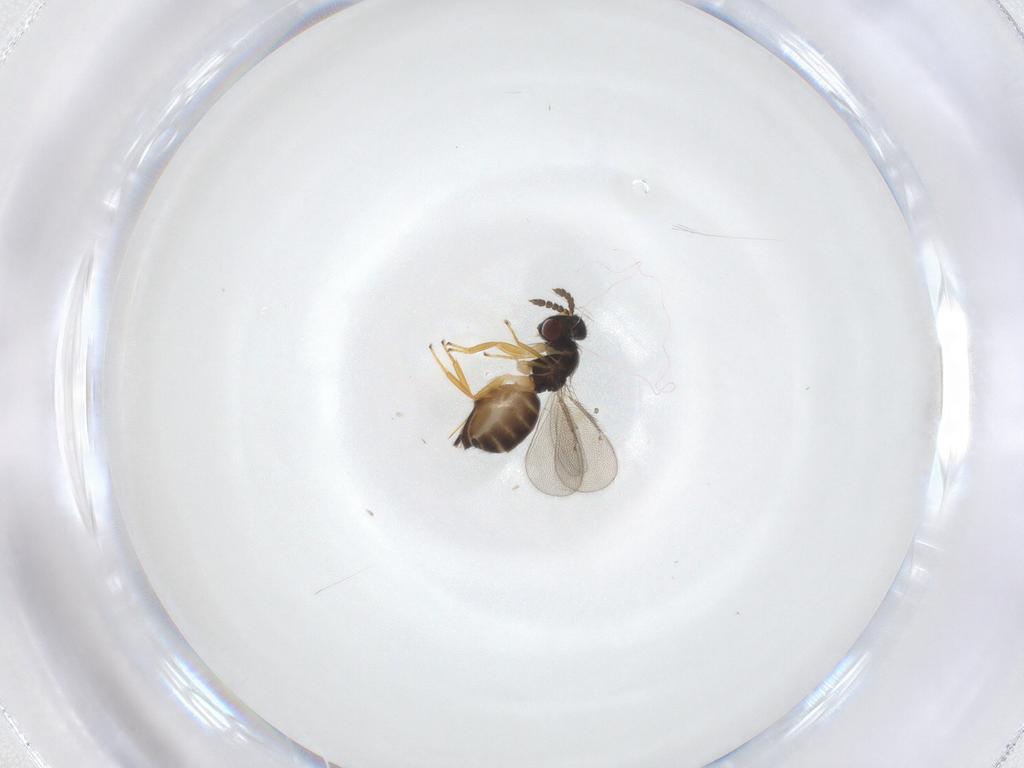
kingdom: Animalia
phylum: Arthropoda
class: Insecta
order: Hymenoptera
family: Eulophidae
